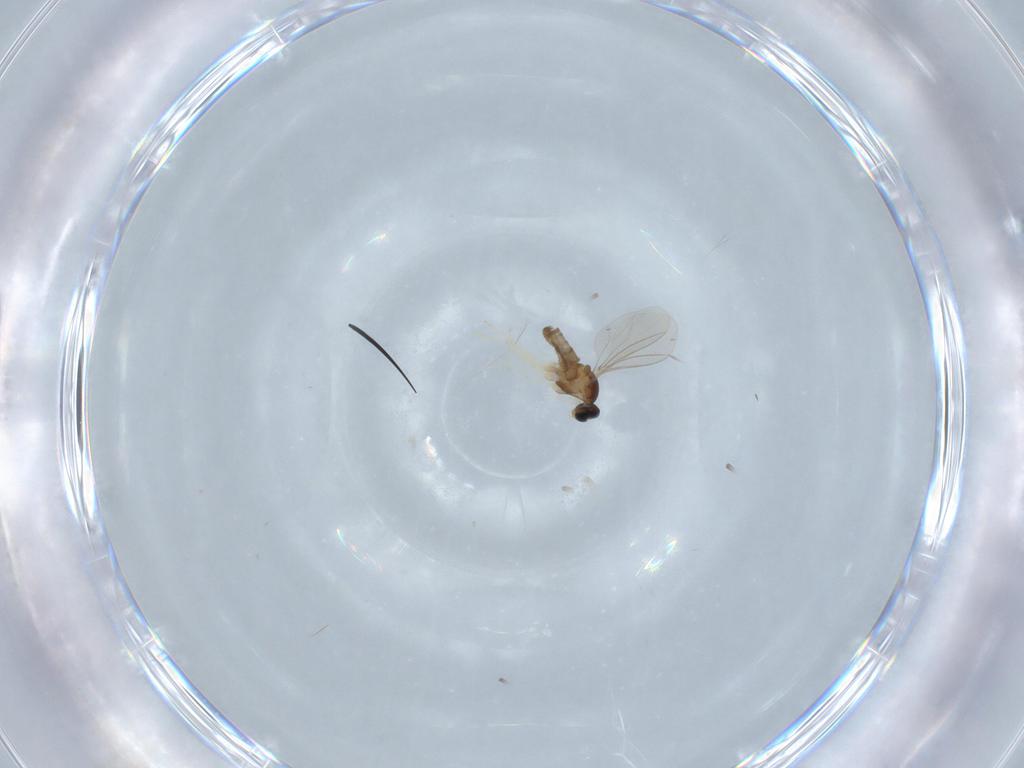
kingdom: Animalia
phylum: Arthropoda
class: Insecta
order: Diptera
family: Cecidomyiidae
